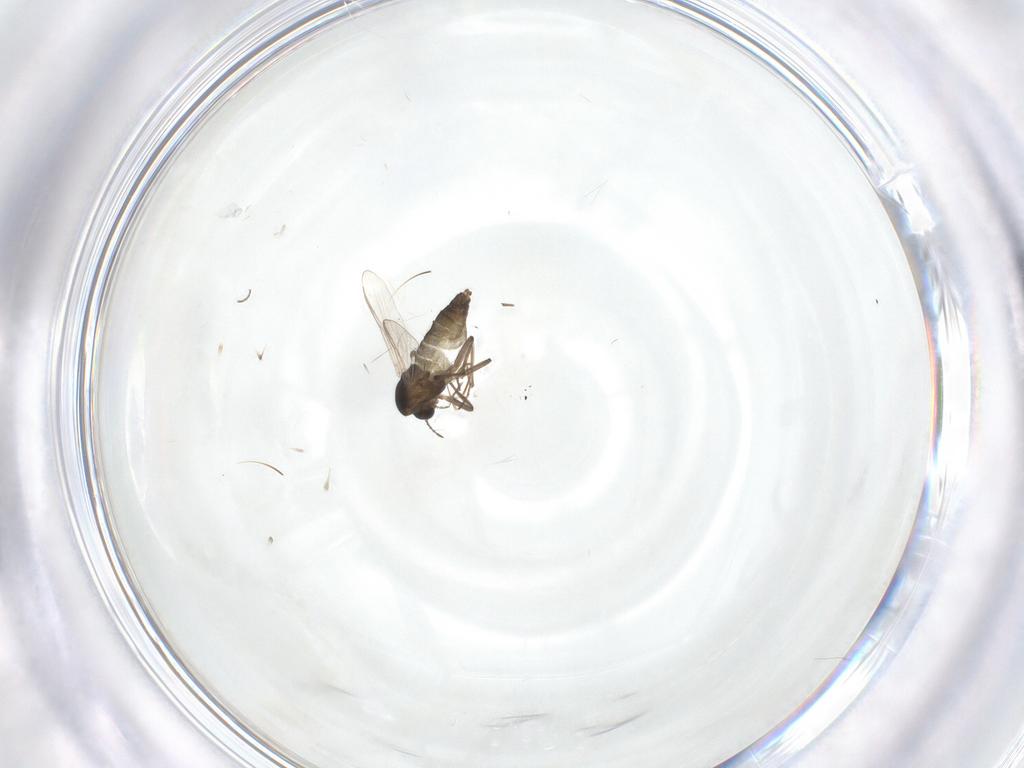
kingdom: Animalia
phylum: Arthropoda
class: Insecta
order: Diptera
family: Chironomidae
